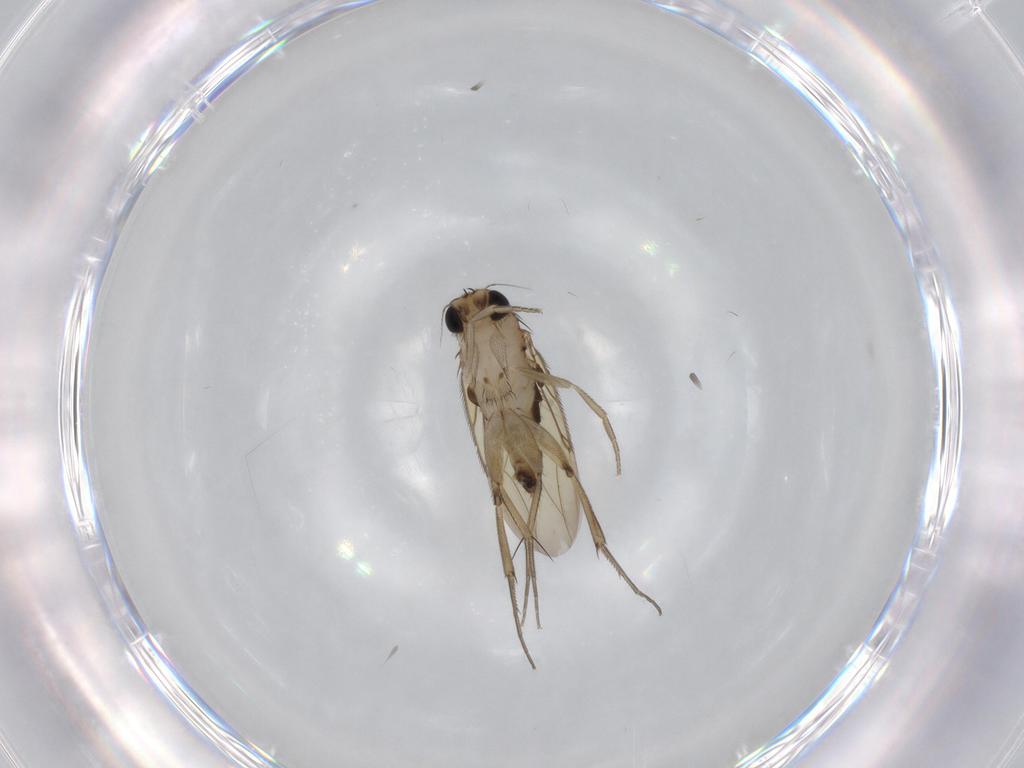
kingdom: Animalia
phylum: Arthropoda
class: Insecta
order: Diptera
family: Phoridae
